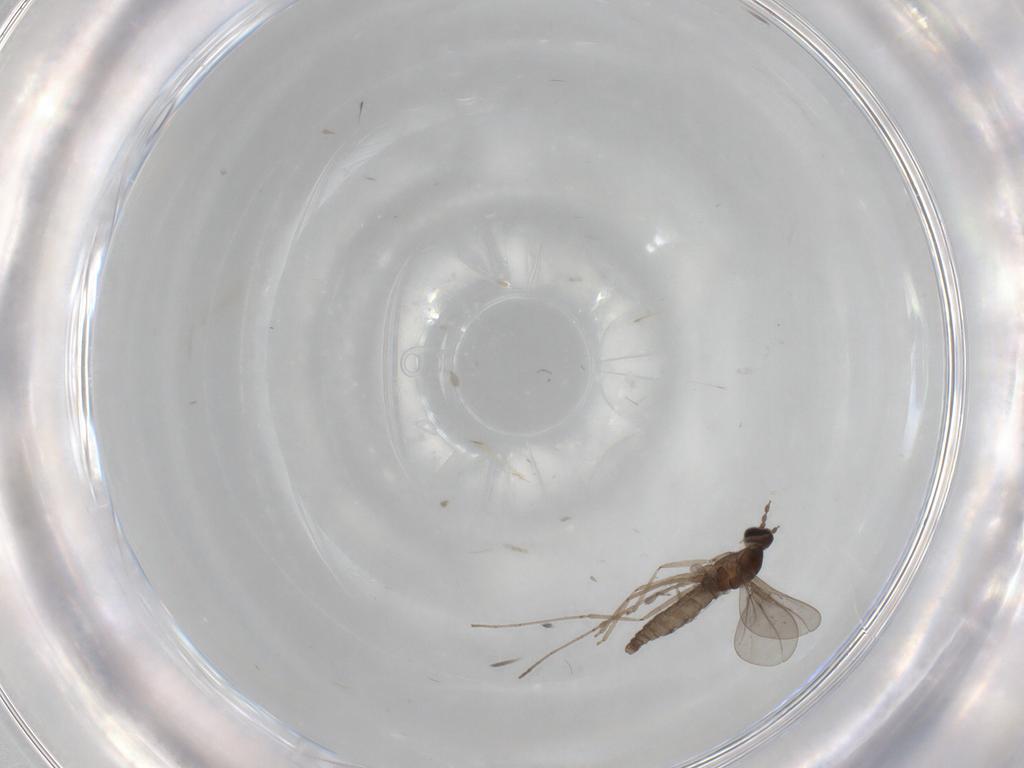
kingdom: Animalia
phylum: Arthropoda
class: Insecta
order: Diptera
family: Cecidomyiidae
